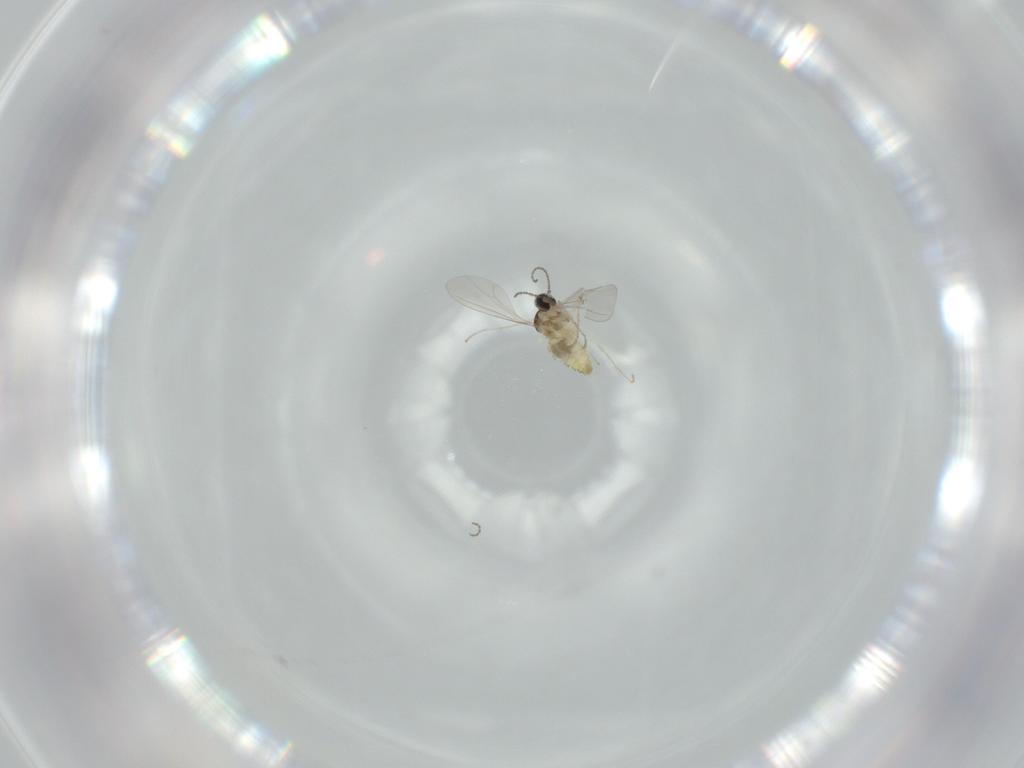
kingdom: Animalia
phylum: Arthropoda
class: Insecta
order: Diptera
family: Cecidomyiidae
